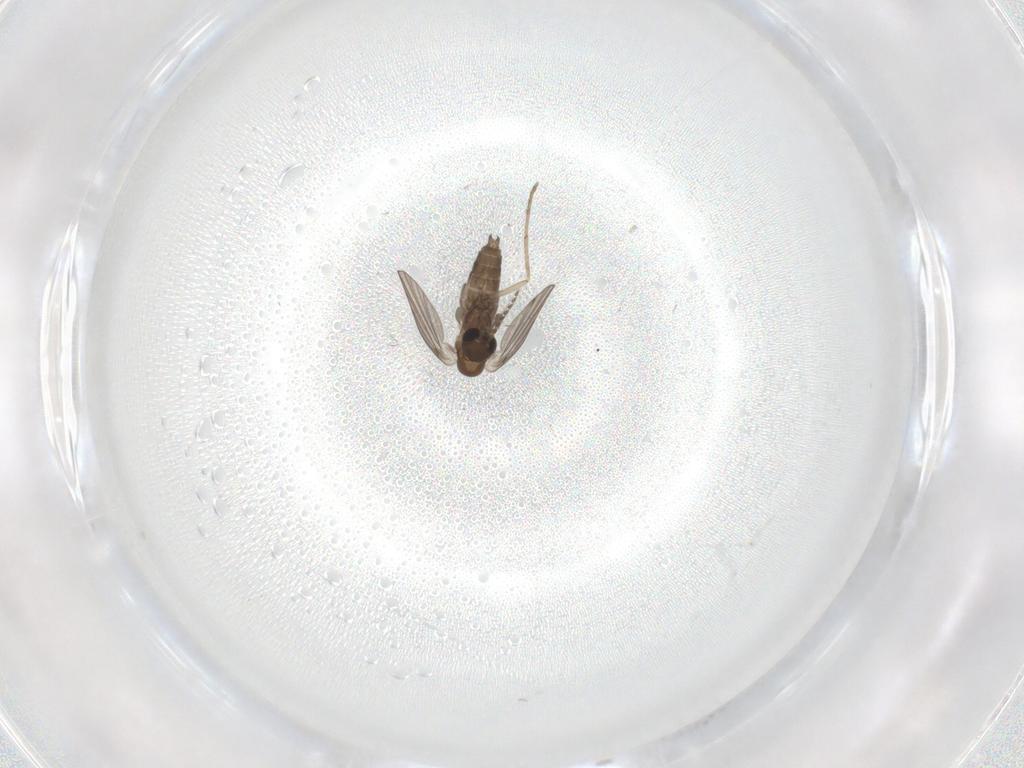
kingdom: Animalia
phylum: Arthropoda
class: Insecta
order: Diptera
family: Culicidae
